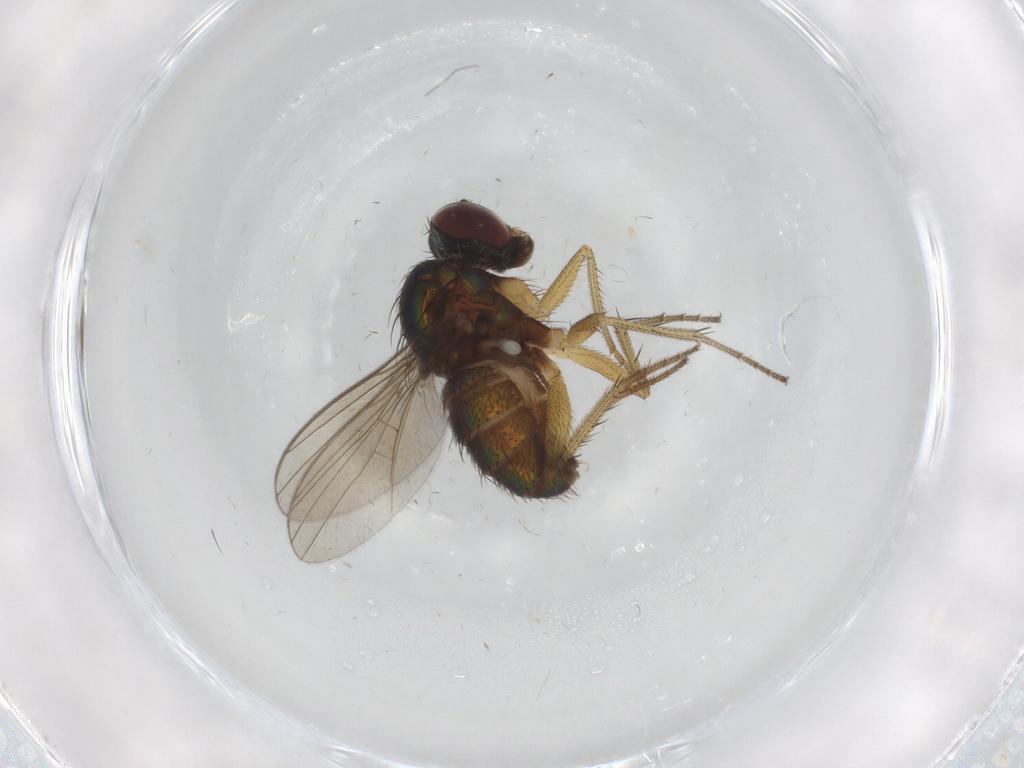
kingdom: Animalia
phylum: Arthropoda
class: Insecta
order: Diptera
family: Dolichopodidae
